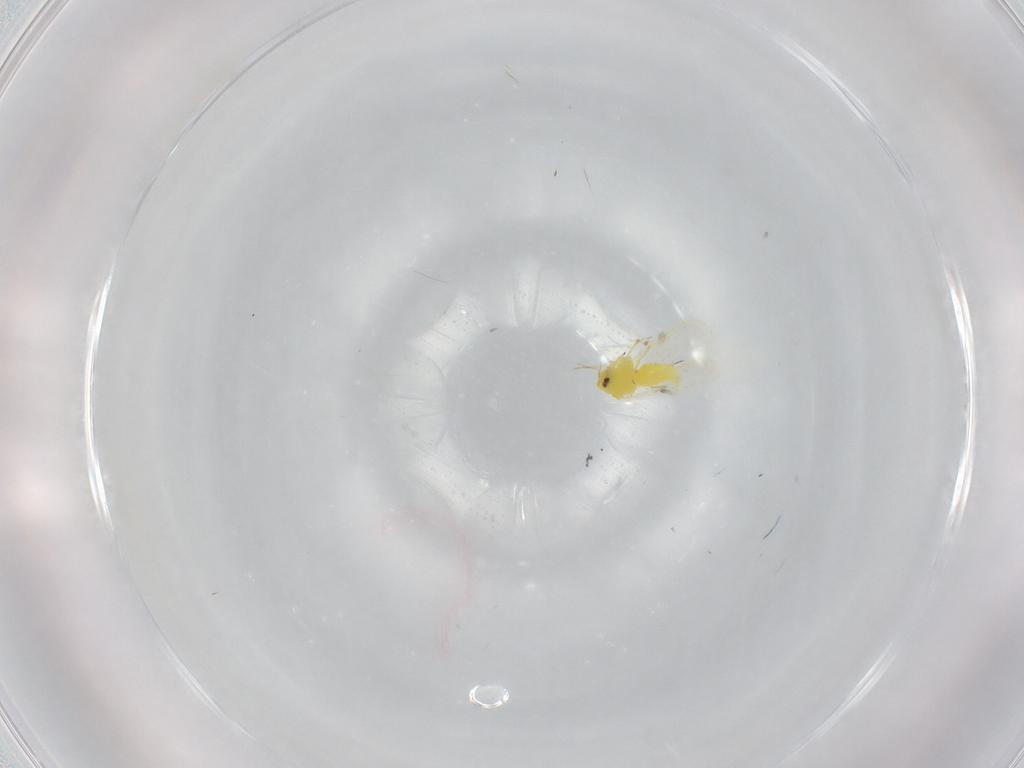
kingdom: Animalia
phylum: Arthropoda
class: Insecta
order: Hemiptera
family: Aleyrodidae
